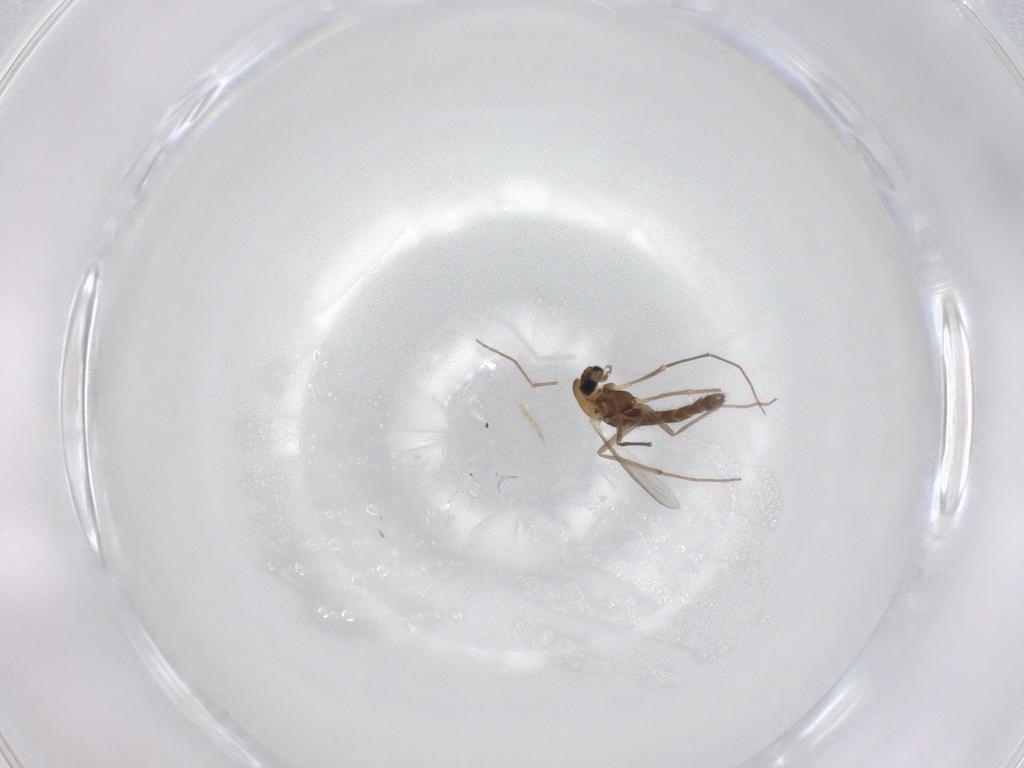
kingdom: Animalia
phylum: Arthropoda
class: Insecta
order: Diptera
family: Chironomidae
